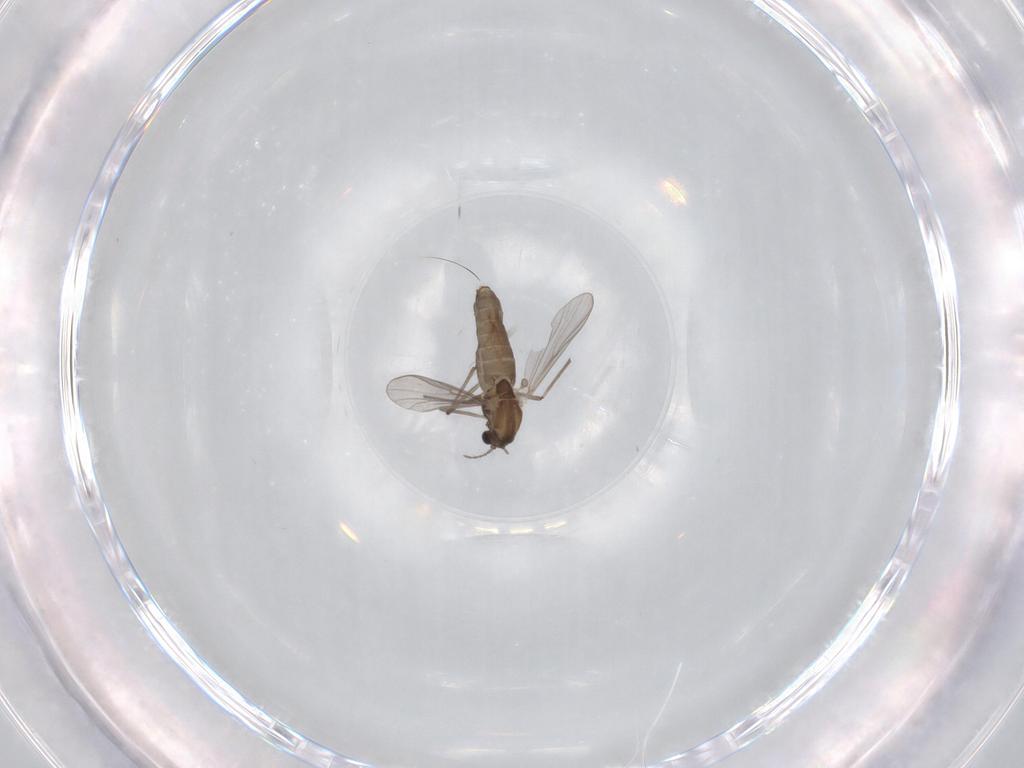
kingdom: Animalia
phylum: Arthropoda
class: Insecta
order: Diptera
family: Chironomidae
